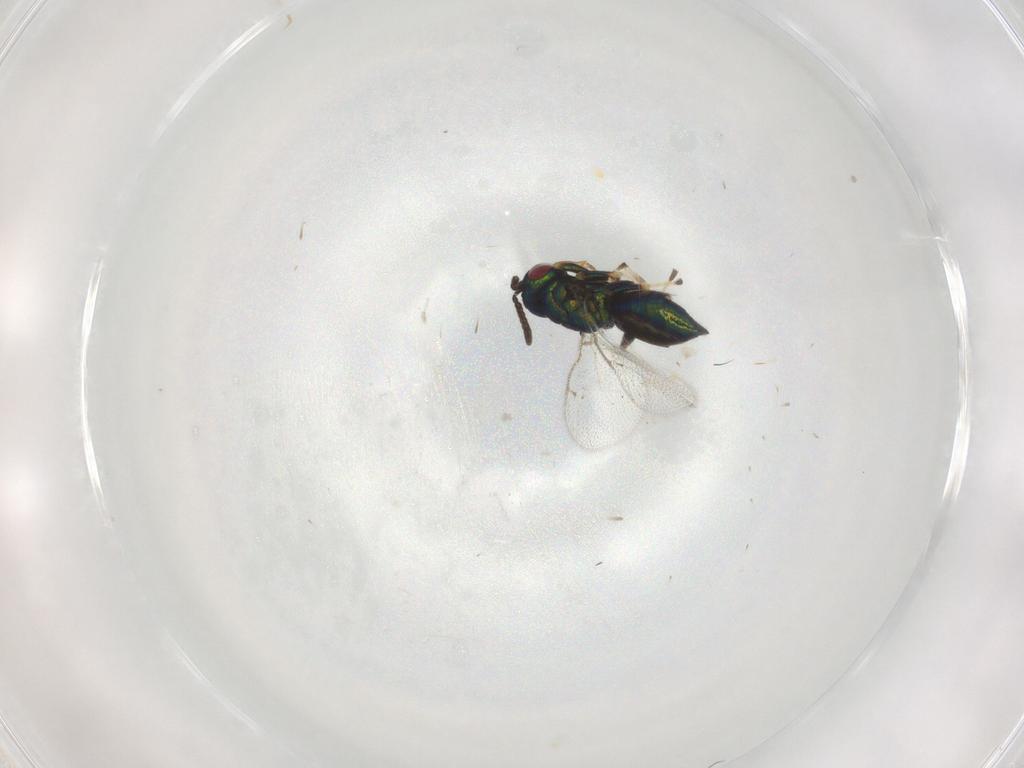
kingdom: Animalia
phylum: Arthropoda
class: Insecta
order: Hymenoptera
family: Pteromalidae
